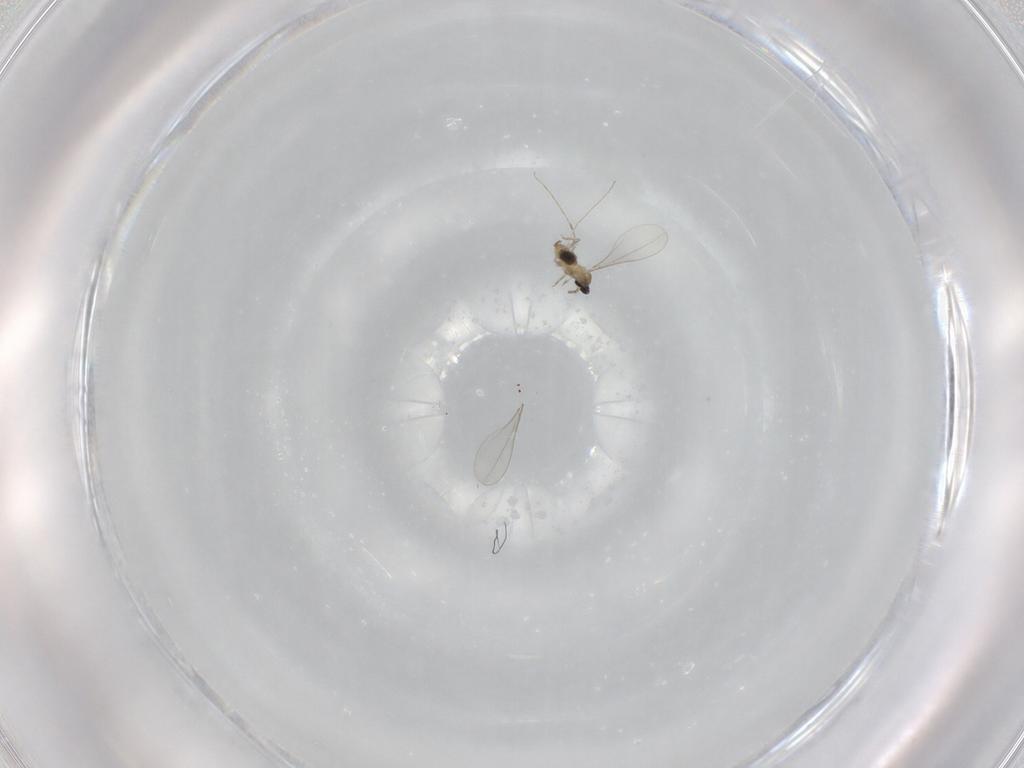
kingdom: Animalia
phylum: Arthropoda
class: Insecta
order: Diptera
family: Cecidomyiidae
